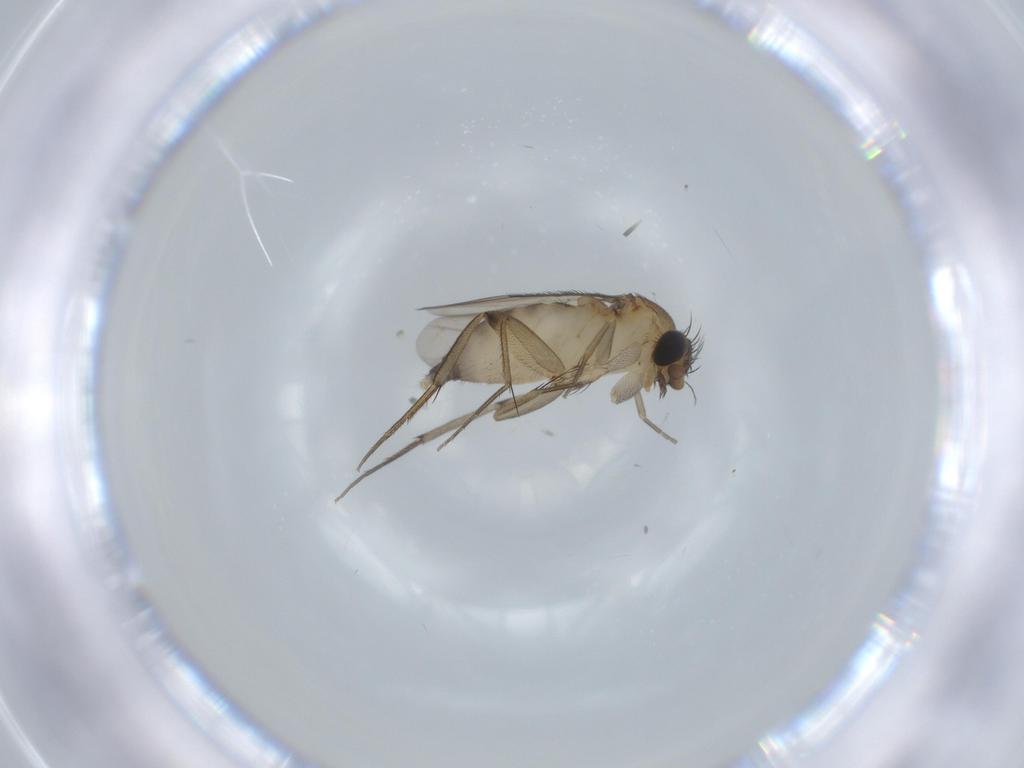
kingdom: Animalia
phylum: Arthropoda
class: Insecta
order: Diptera
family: Phoridae
